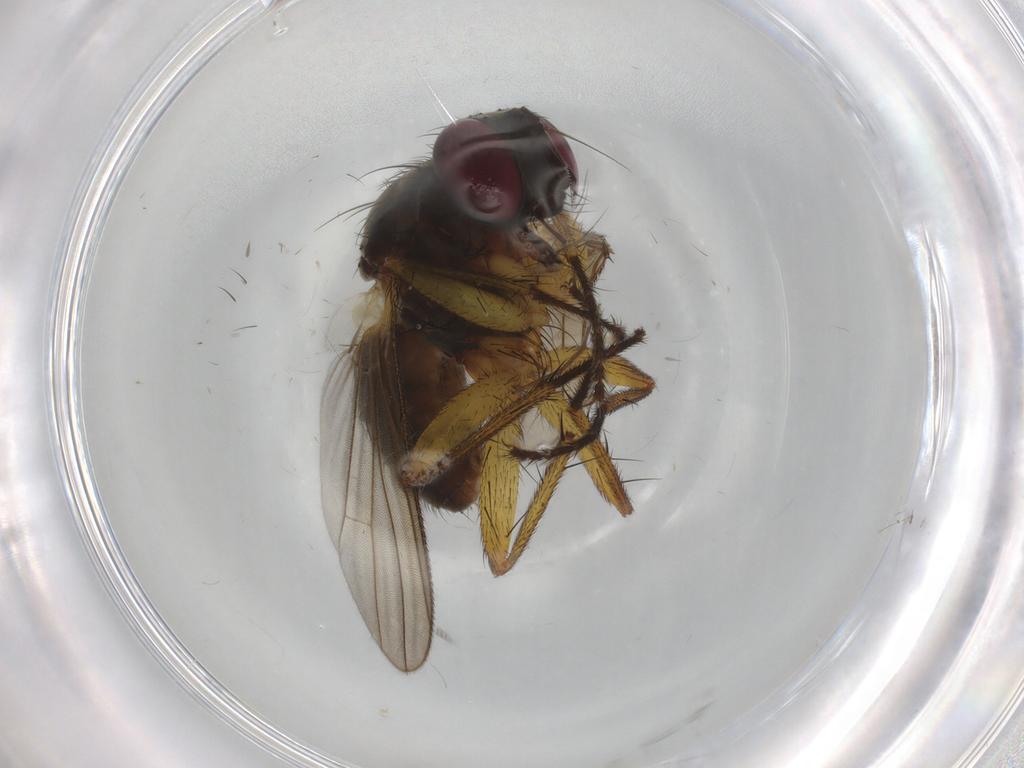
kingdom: Animalia
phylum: Arthropoda
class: Insecta
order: Diptera
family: Muscidae
